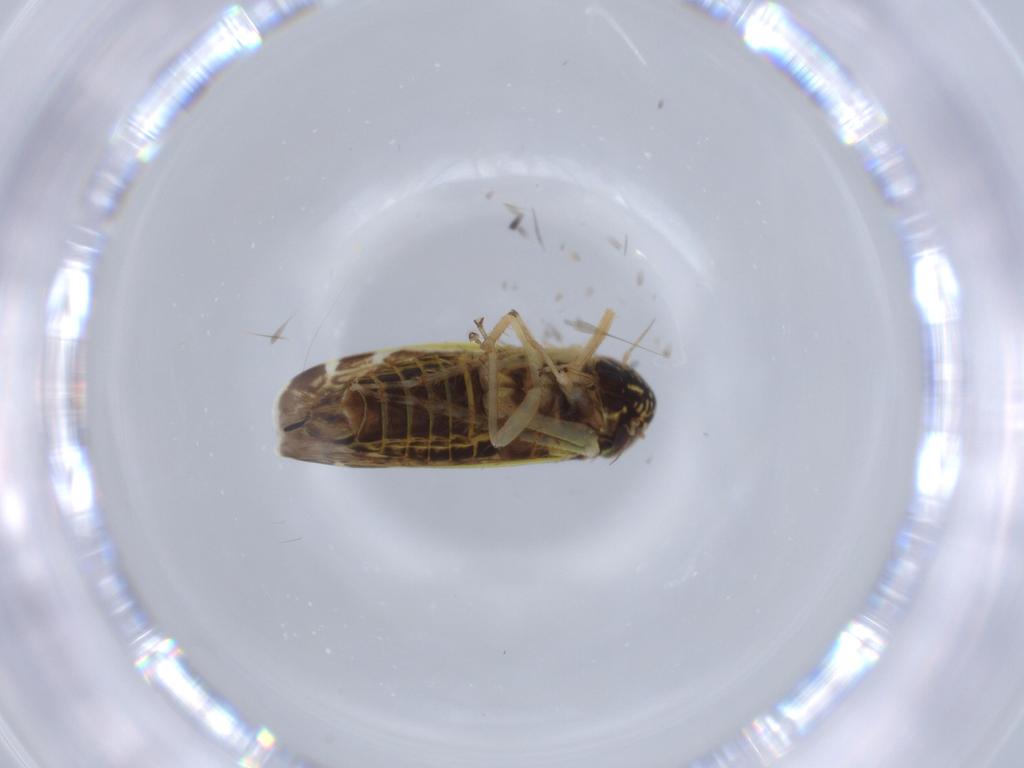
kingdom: Animalia
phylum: Arthropoda
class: Insecta
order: Hemiptera
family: Cicadellidae
